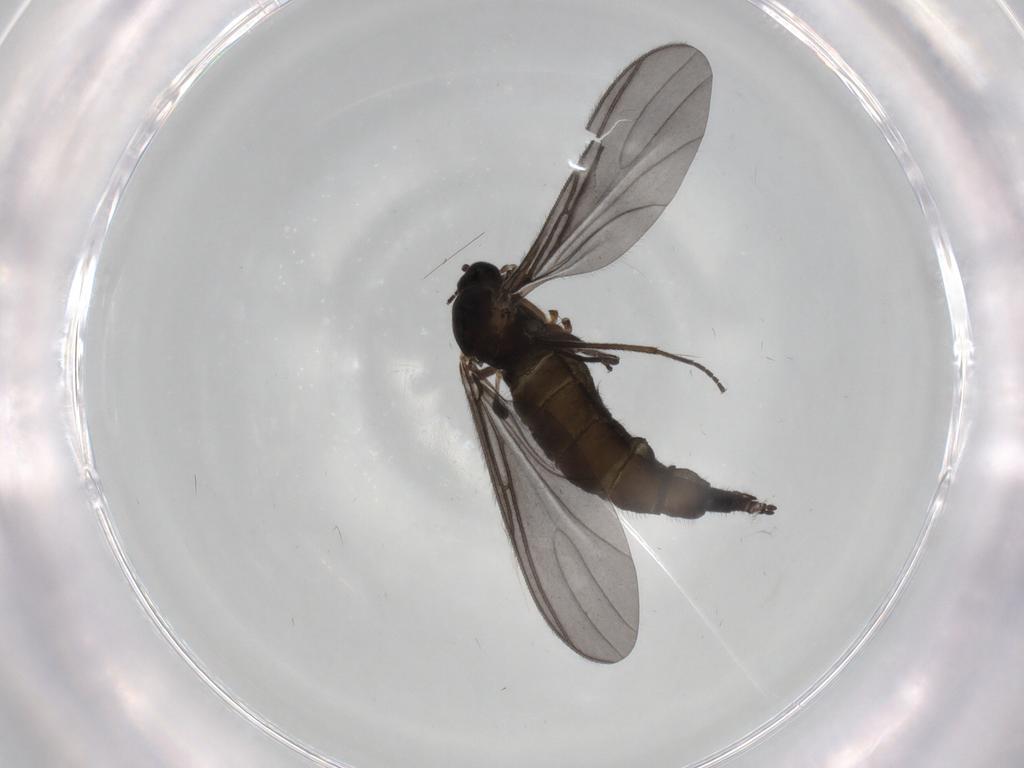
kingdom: Animalia
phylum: Arthropoda
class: Insecta
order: Diptera
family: Sciaridae
